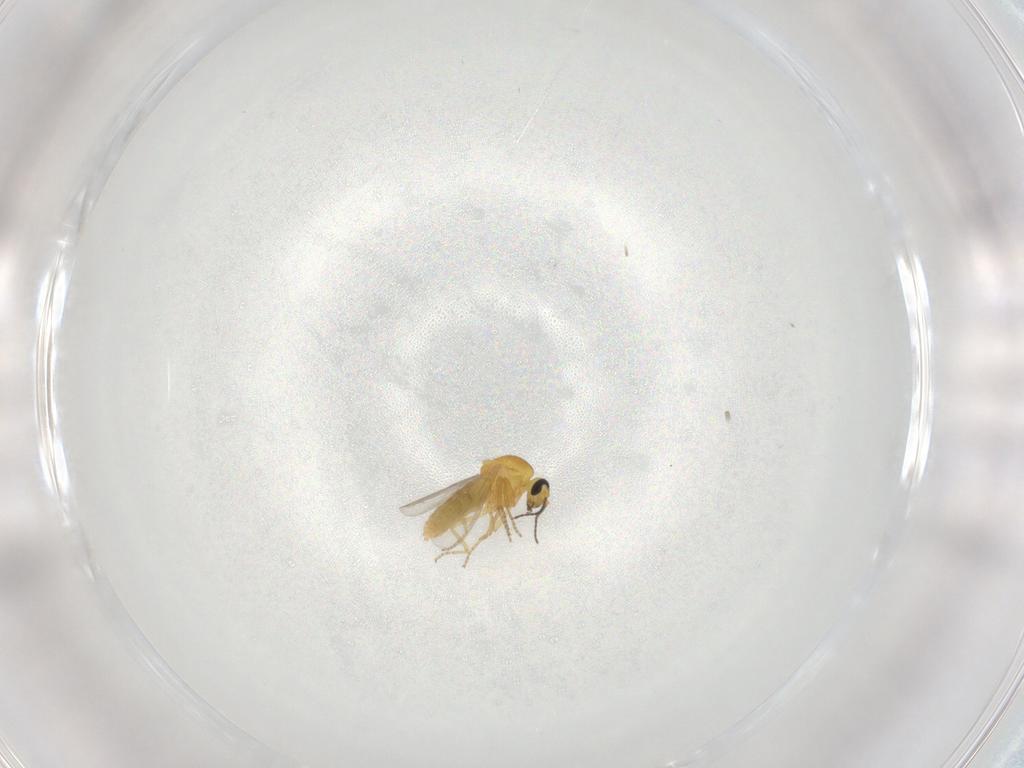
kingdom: Animalia
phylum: Arthropoda
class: Insecta
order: Diptera
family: Ceratopogonidae
